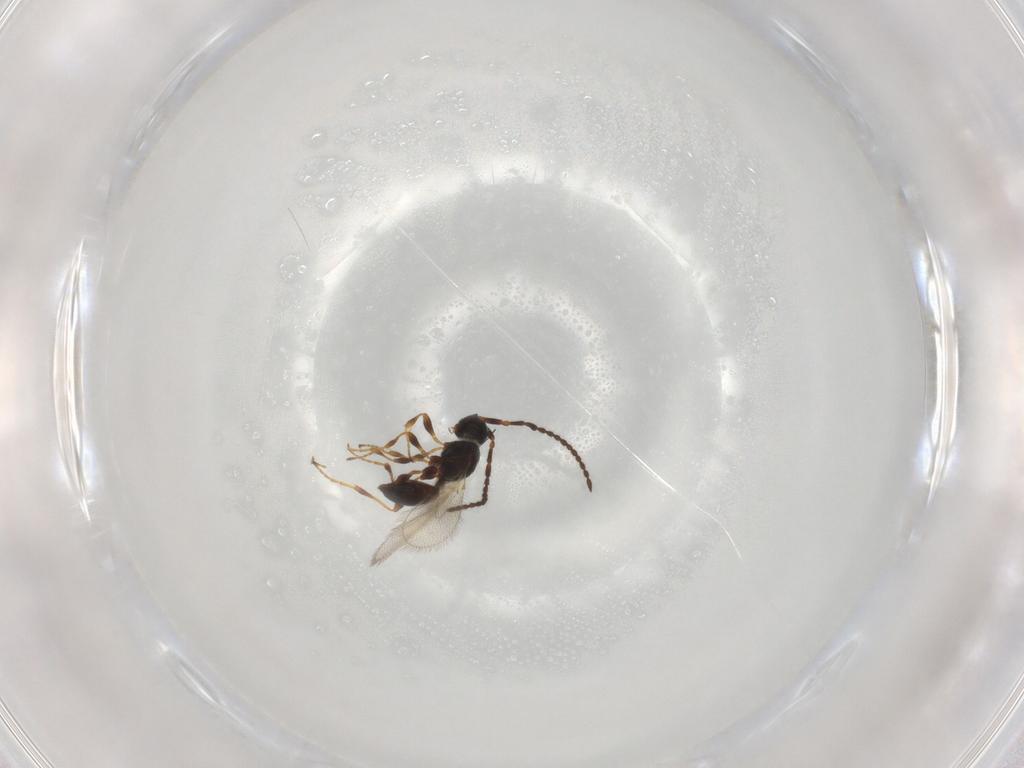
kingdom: Animalia
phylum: Arthropoda
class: Insecta
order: Hymenoptera
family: Diapriidae
